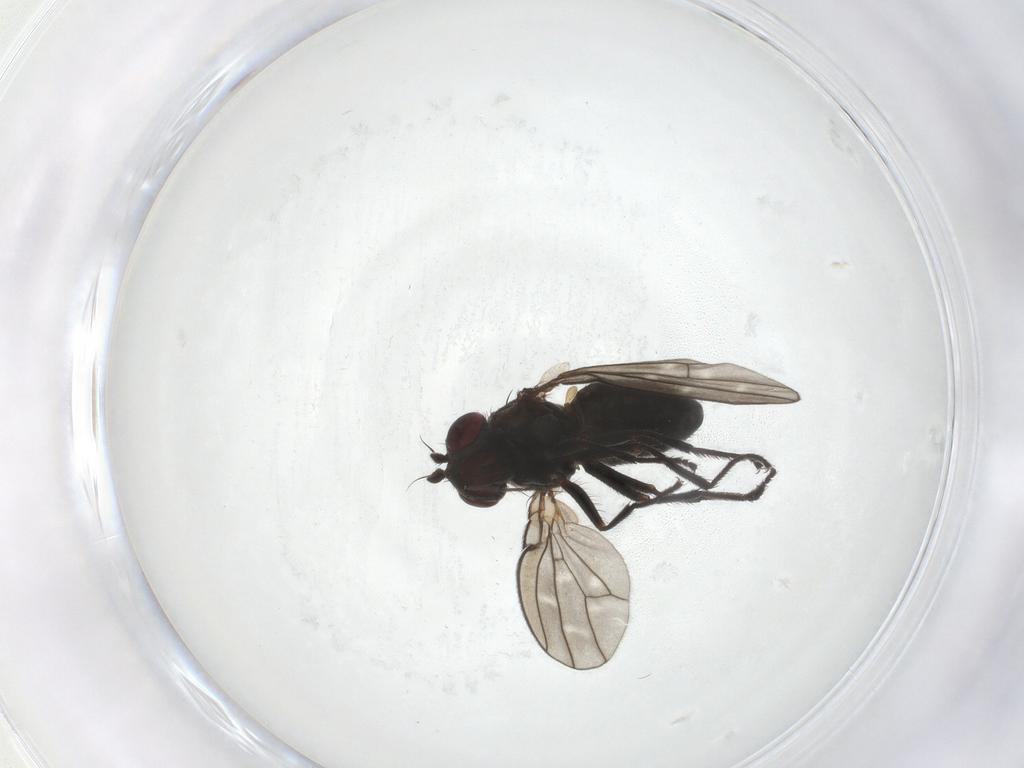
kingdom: Animalia
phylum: Arthropoda
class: Insecta
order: Diptera
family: Ephydridae
